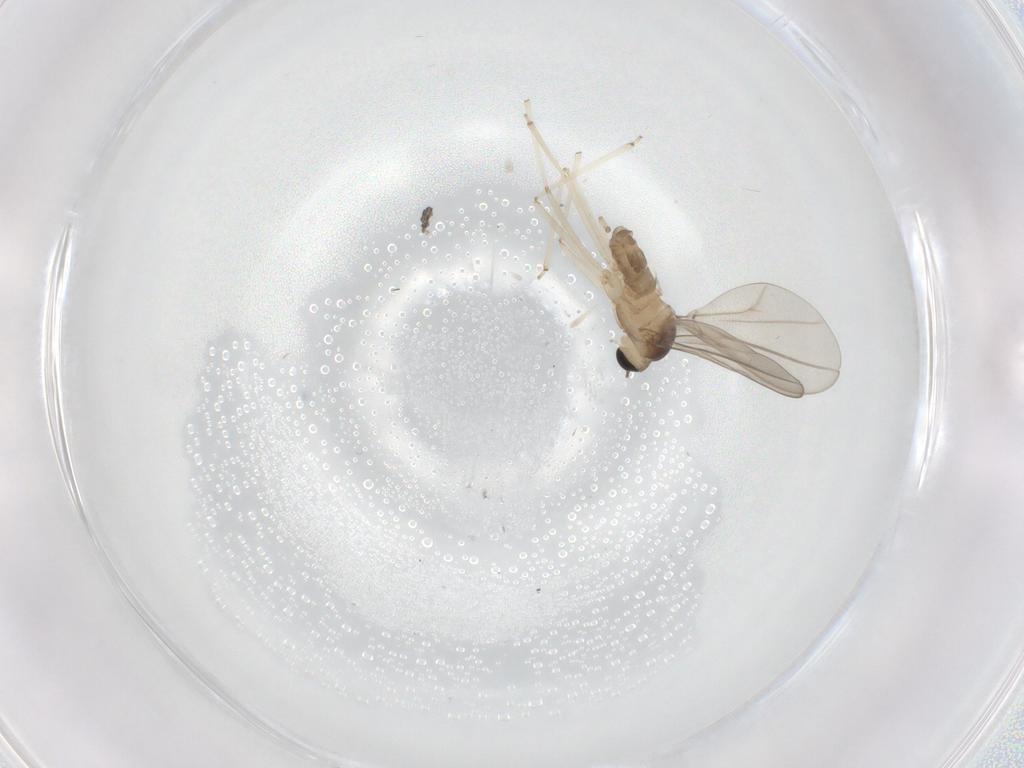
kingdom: Animalia
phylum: Arthropoda
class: Insecta
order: Diptera
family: Cecidomyiidae
